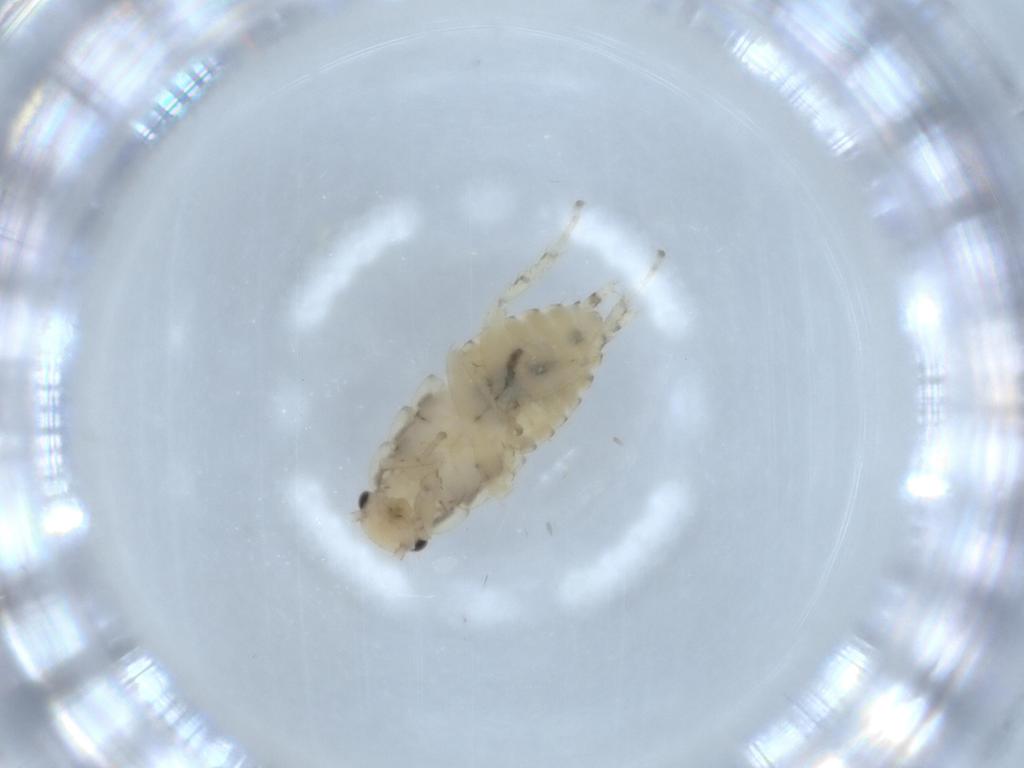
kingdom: Animalia
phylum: Arthropoda
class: Insecta
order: Blattodea
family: Ectobiidae
